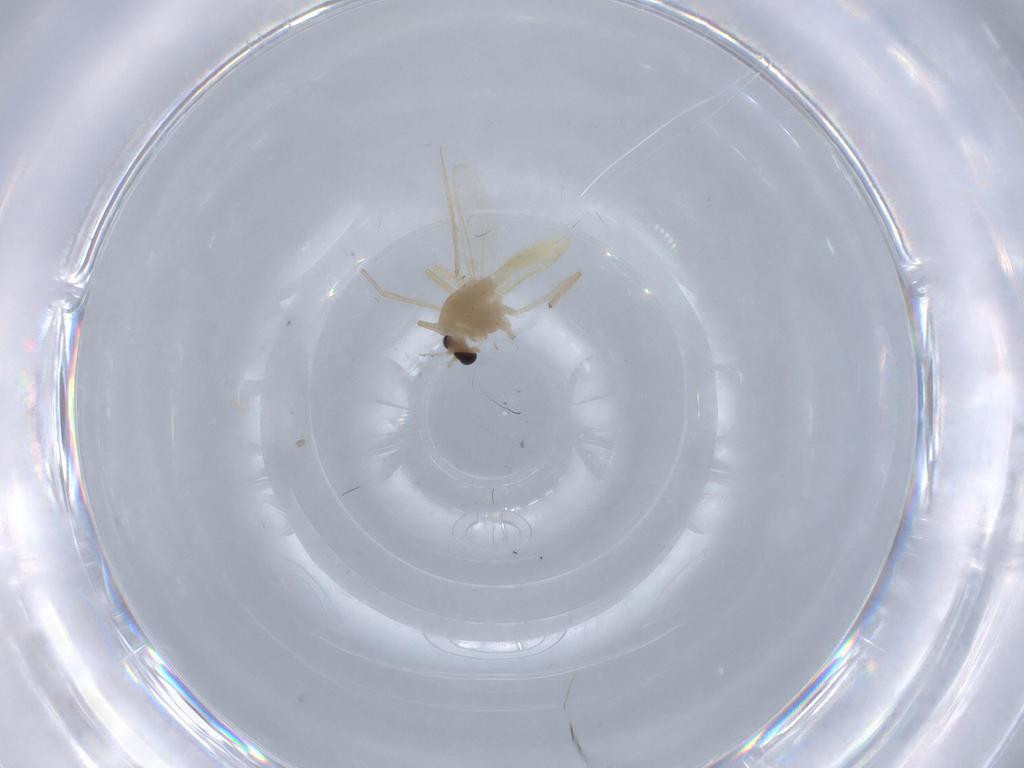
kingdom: Animalia
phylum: Arthropoda
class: Insecta
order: Diptera
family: Chironomidae
